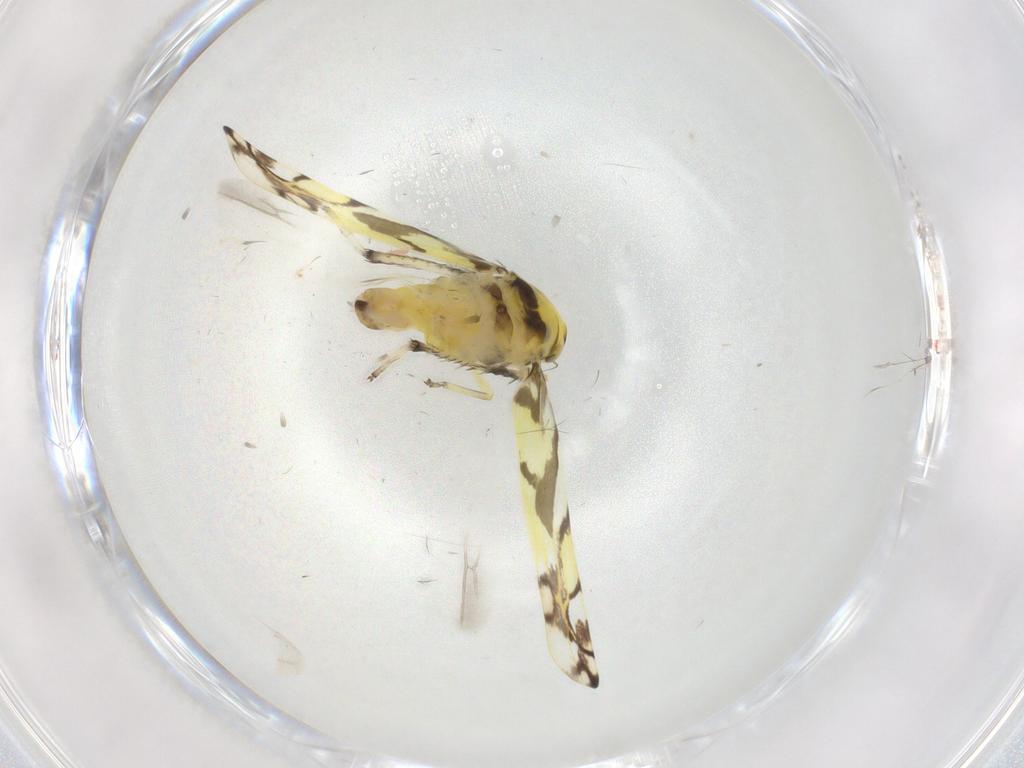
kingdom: Animalia
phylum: Arthropoda
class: Insecta
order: Hemiptera
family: Cicadellidae
